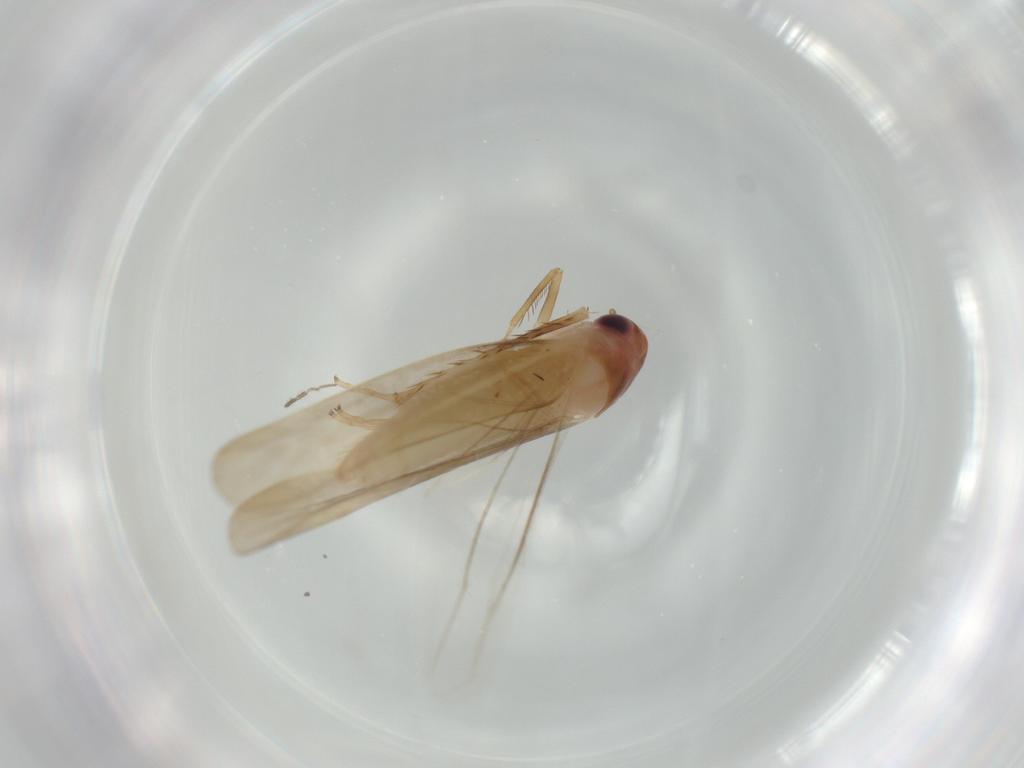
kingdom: Animalia
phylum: Arthropoda
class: Insecta
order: Hemiptera
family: Cicadellidae
